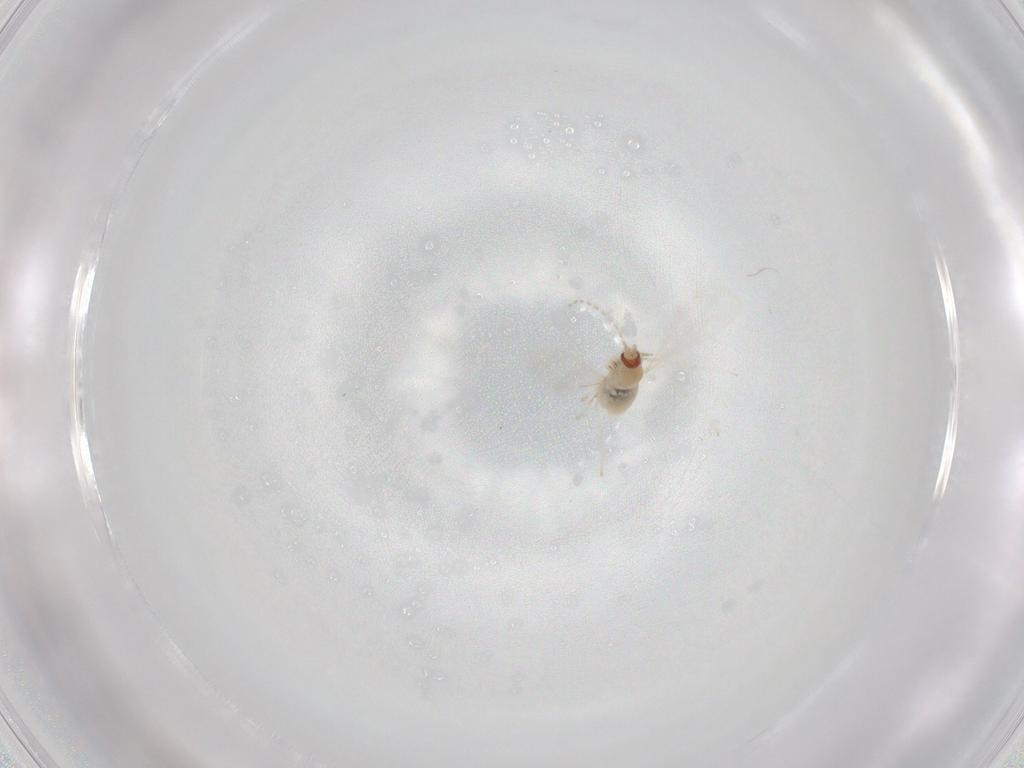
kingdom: Animalia
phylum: Arthropoda
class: Insecta
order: Diptera
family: Cecidomyiidae
